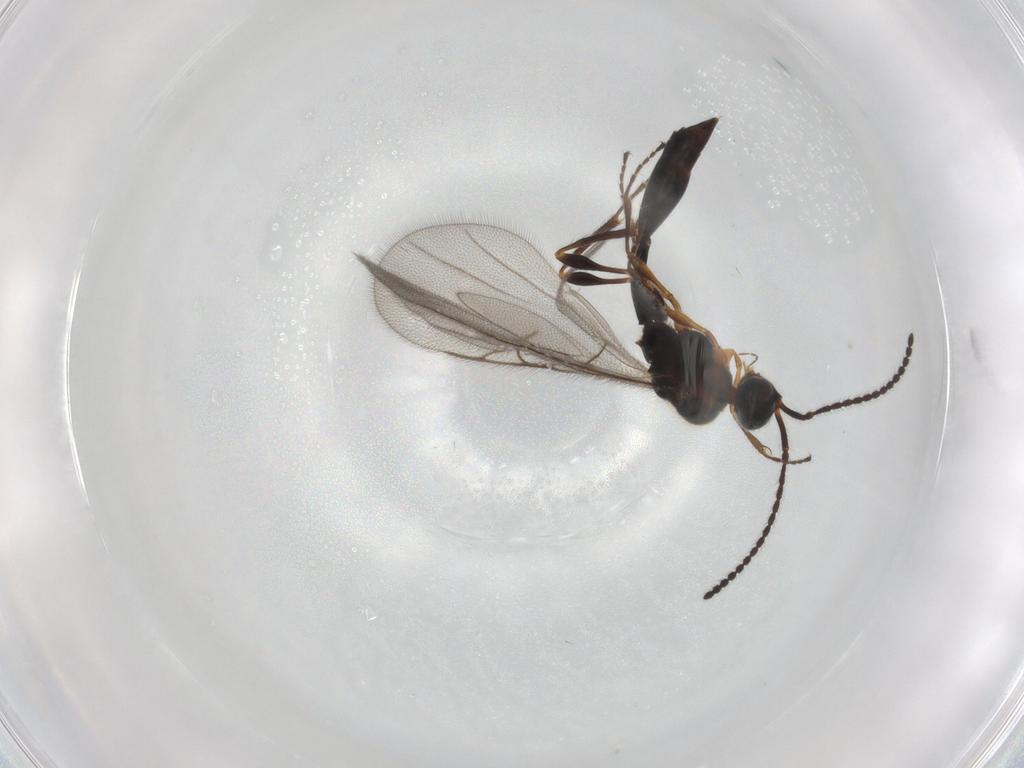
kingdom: Animalia
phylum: Arthropoda
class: Insecta
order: Hymenoptera
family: Diapriidae
